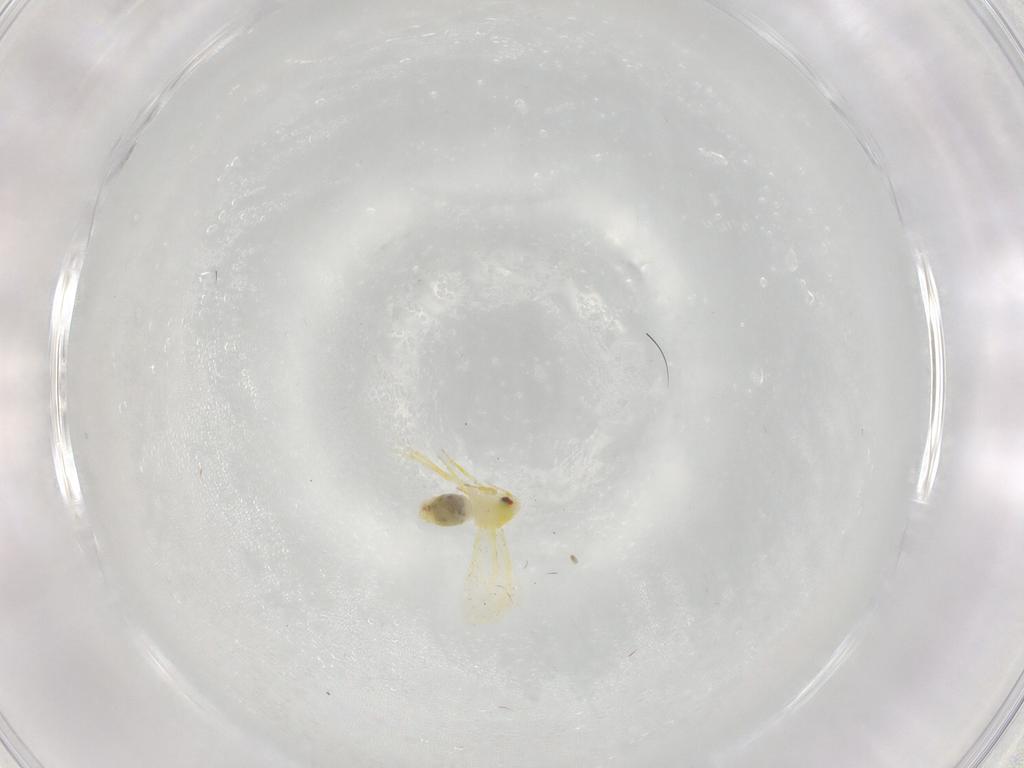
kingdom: Animalia
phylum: Arthropoda
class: Insecta
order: Hemiptera
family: Aleyrodidae
